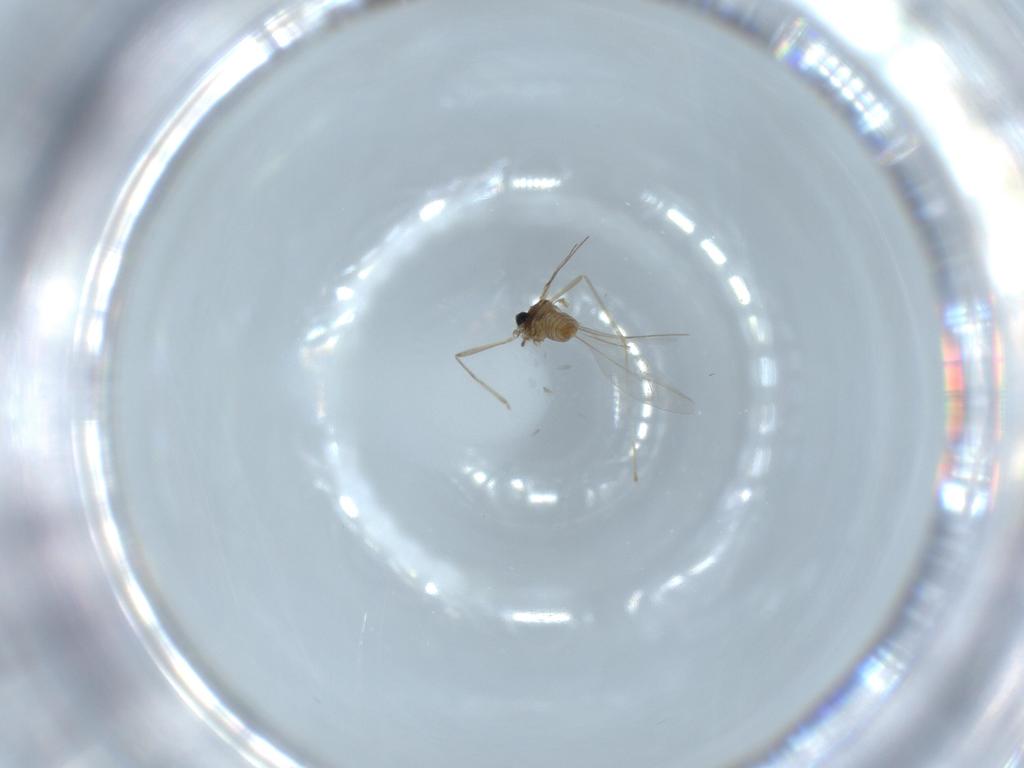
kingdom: Animalia
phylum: Arthropoda
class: Insecta
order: Diptera
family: Cecidomyiidae
